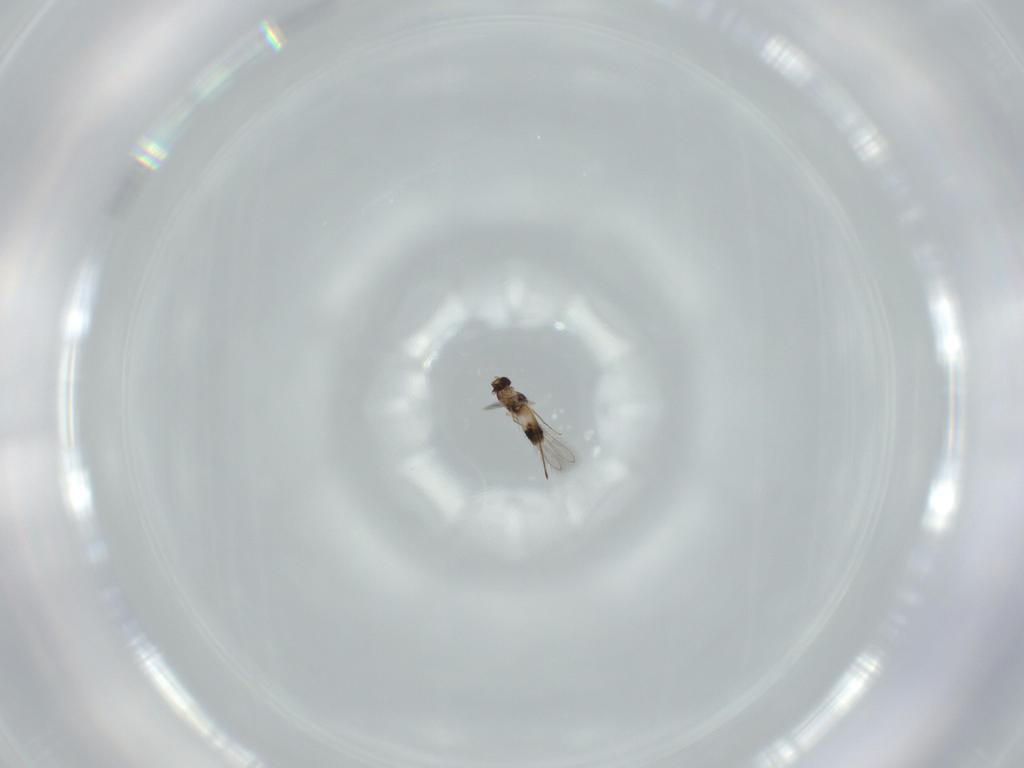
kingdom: Animalia
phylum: Arthropoda
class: Insecta
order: Hymenoptera
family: Mymaridae
